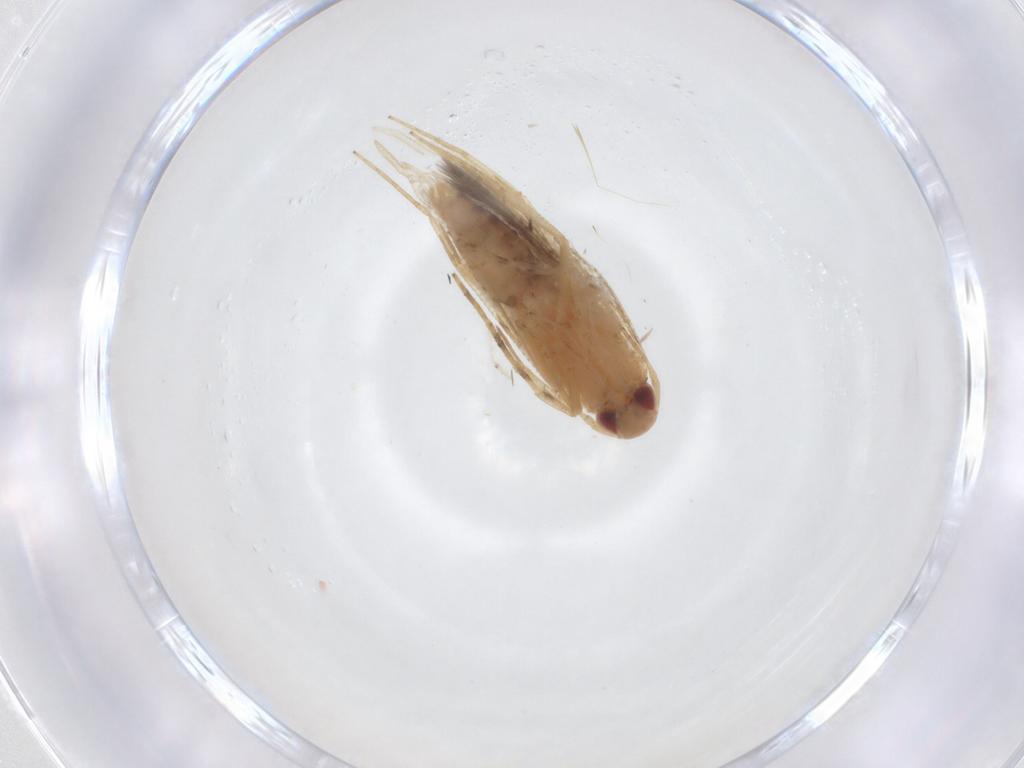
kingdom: Animalia
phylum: Arthropoda
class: Insecta
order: Lepidoptera
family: Cosmopterigidae
